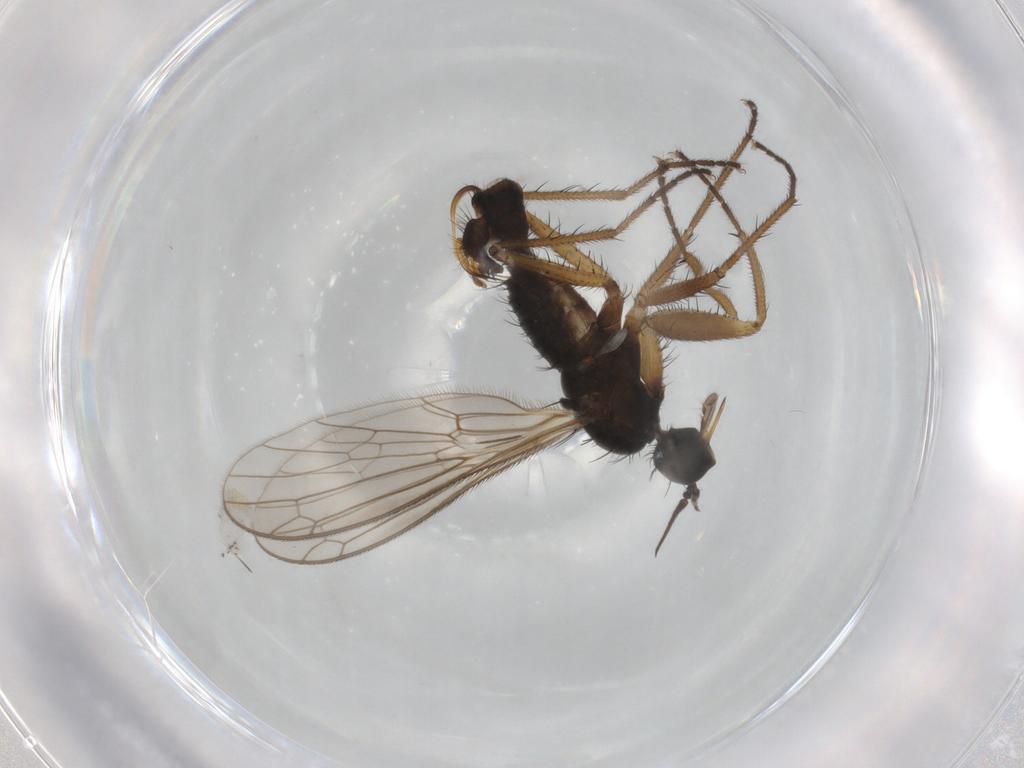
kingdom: Animalia
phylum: Arthropoda
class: Insecta
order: Diptera
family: Empididae
